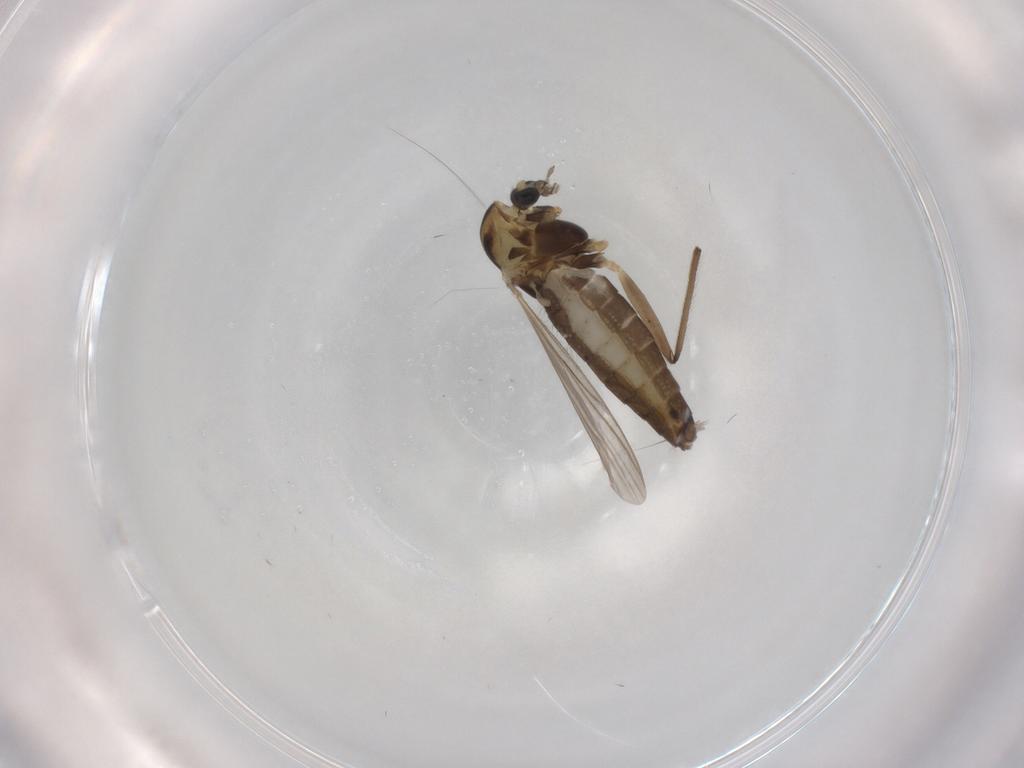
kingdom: Animalia
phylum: Arthropoda
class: Insecta
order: Diptera
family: Chironomidae
